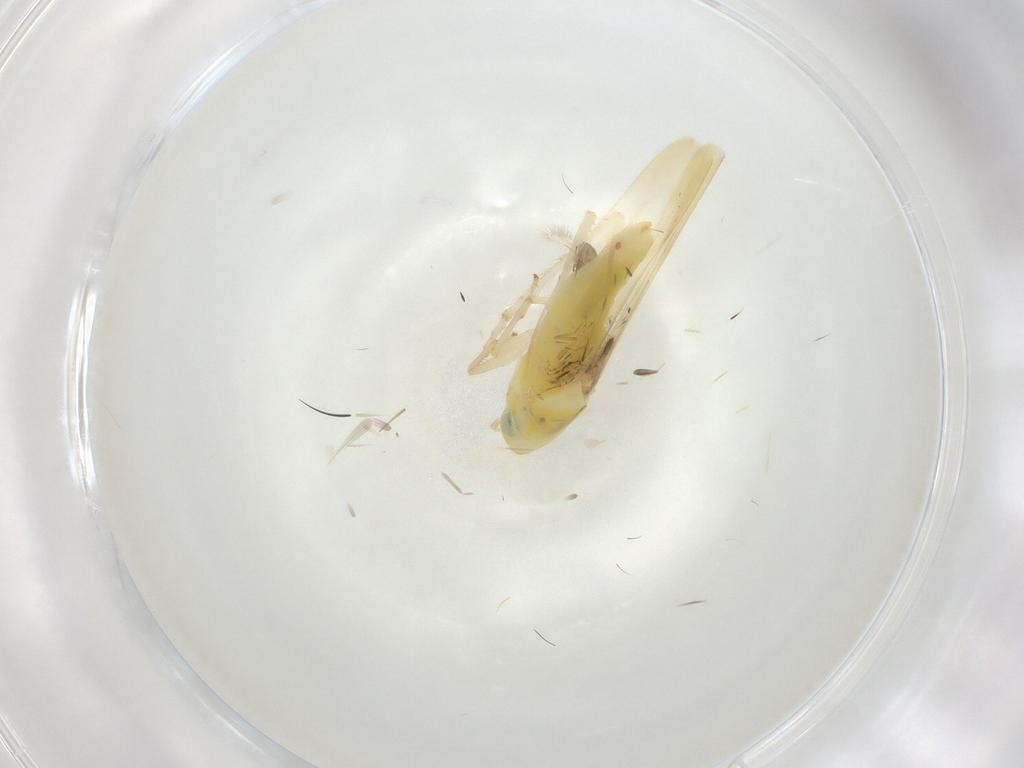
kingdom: Animalia
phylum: Arthropoda
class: Insecta
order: Hemiptera
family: Cicadellidae
